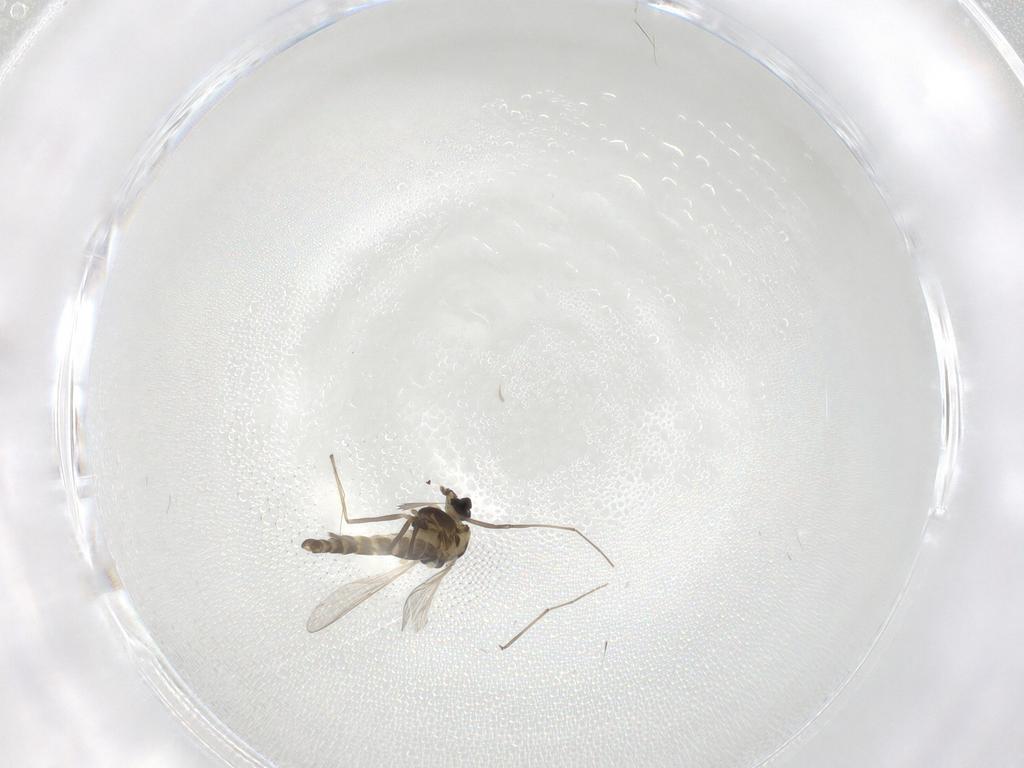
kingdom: Animalia
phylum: Arthropoda
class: Insecta
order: Diptera
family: Chironomidae
